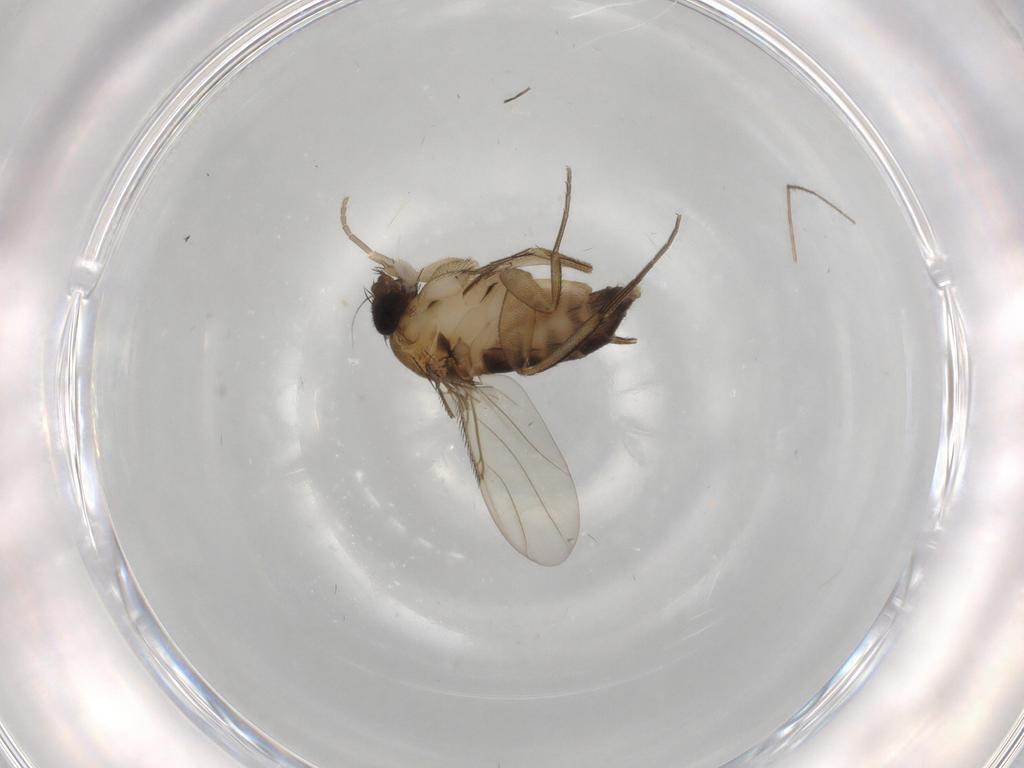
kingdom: Animalia
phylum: Arthropoda
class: Insecta
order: Diptera
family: Phoridae
